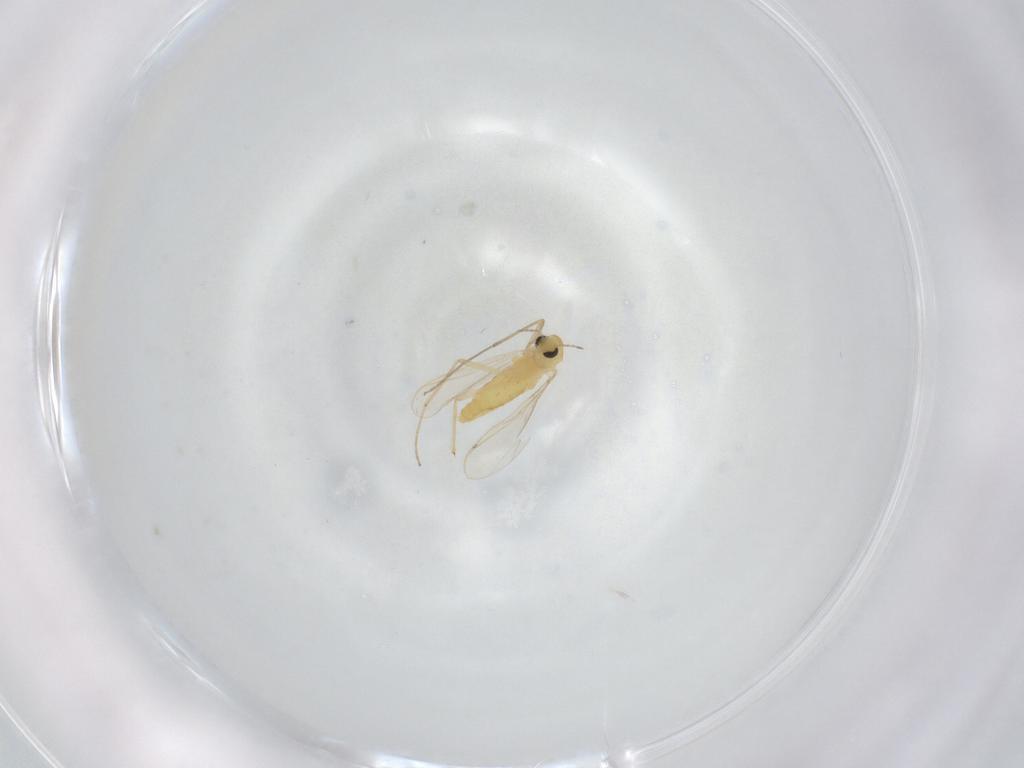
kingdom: Animalia
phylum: Arthropoda
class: Insecta
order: Diptera
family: Chironomidae
